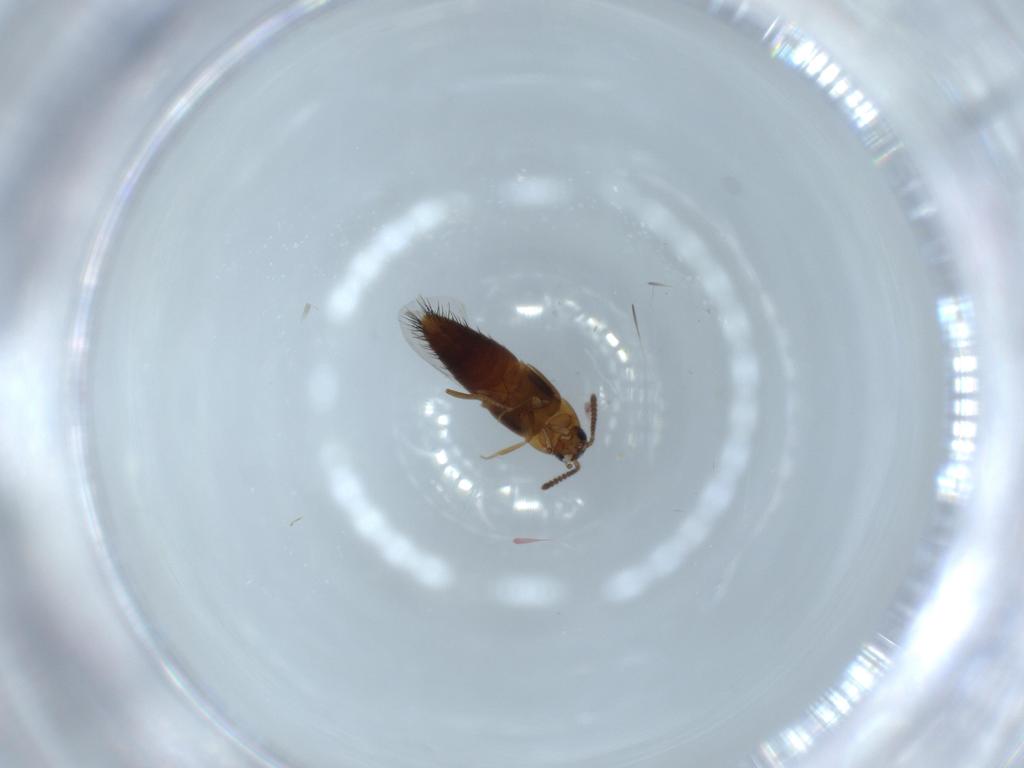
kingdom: Animalia
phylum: Arthropoda
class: Insecta
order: Coleoptera
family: Staphylinidae
